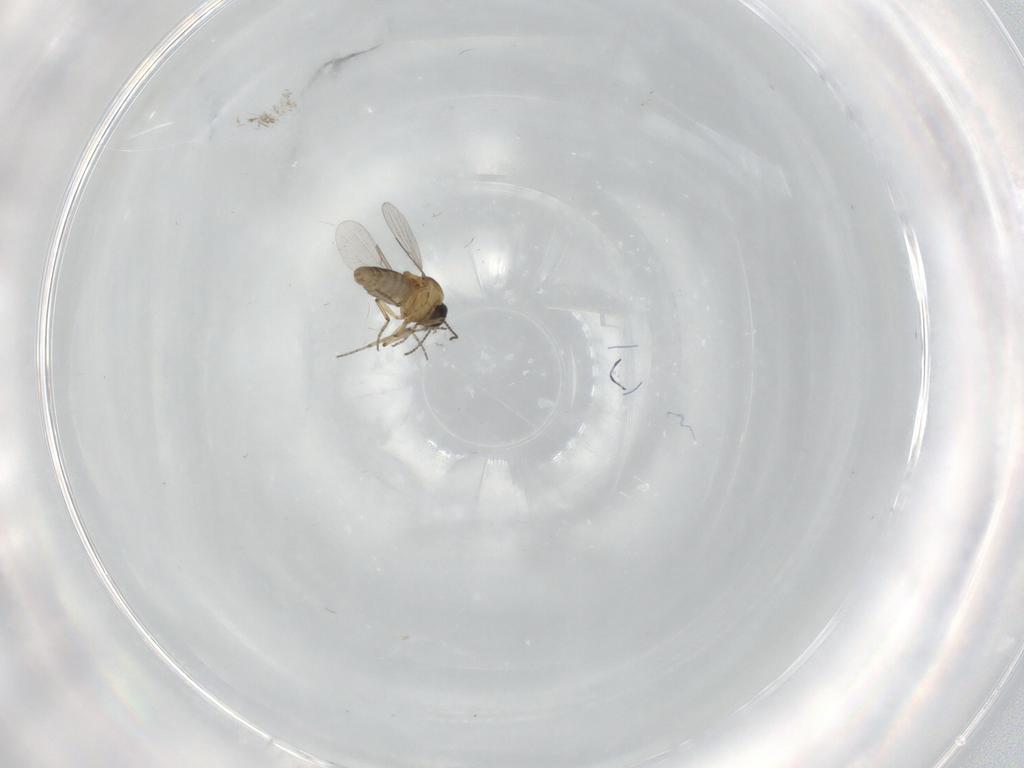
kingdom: Animalia
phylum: Arthropoda
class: Insecta
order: Diptera
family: Ceratopogonidae
